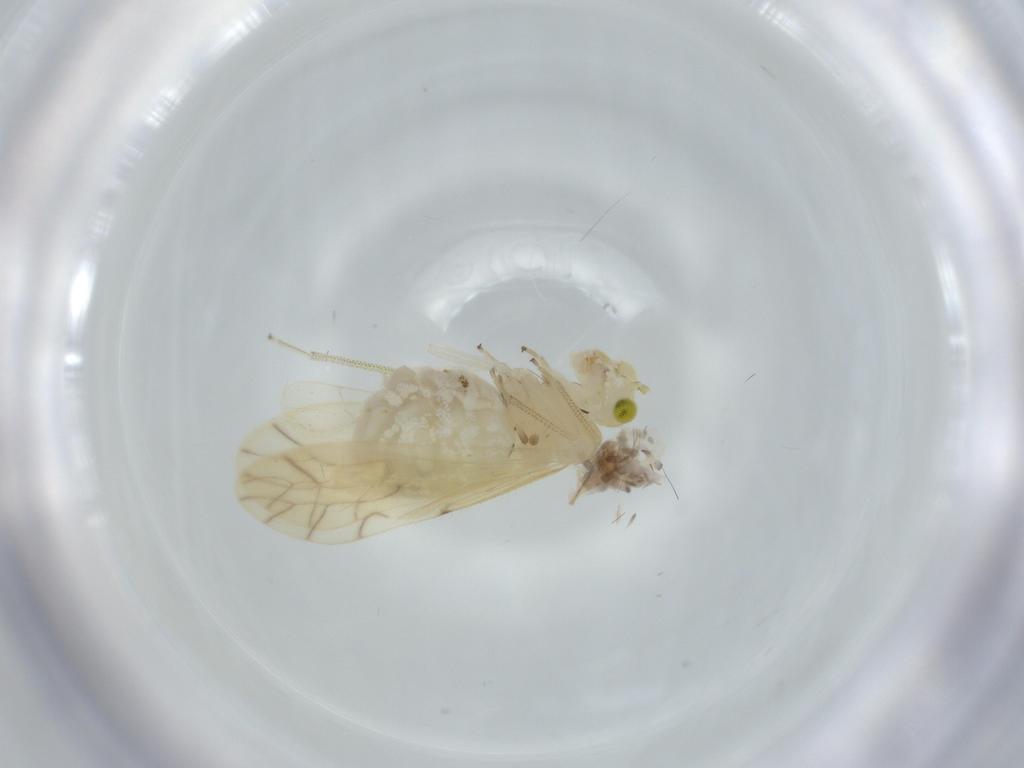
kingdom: Animalia
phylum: Arthropoda
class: Insecta
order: Psocodea
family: Caeciliusidae
